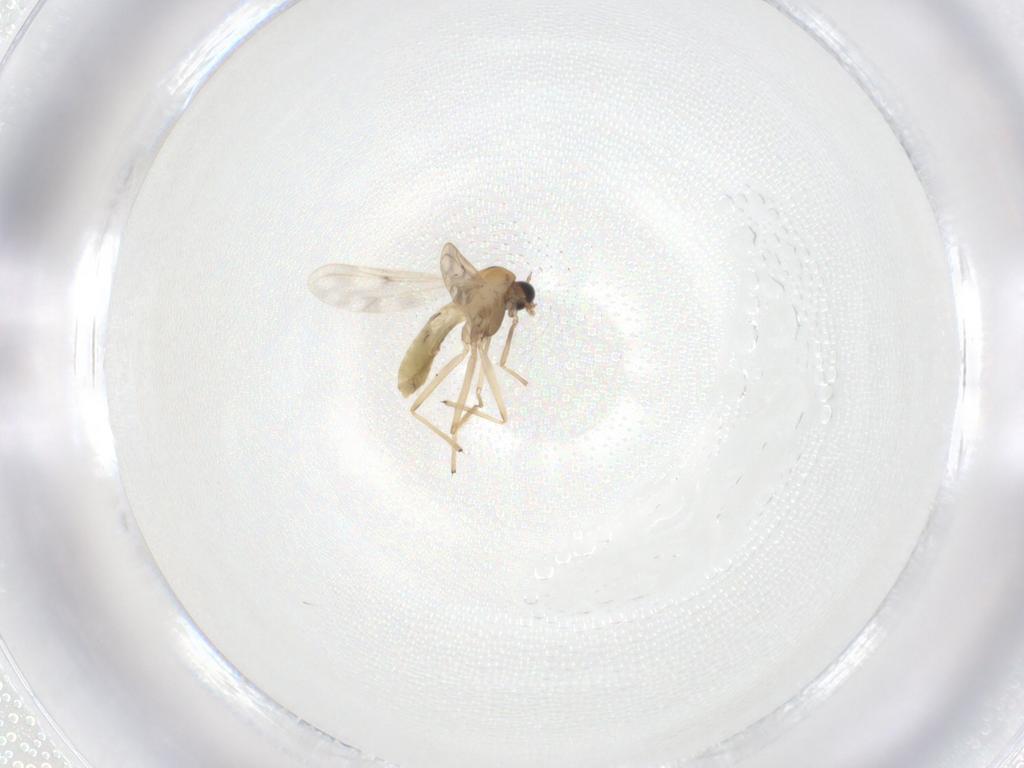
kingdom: Animalia
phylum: Arthropoda
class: Insecta
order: Diptera
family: Chironomidae
